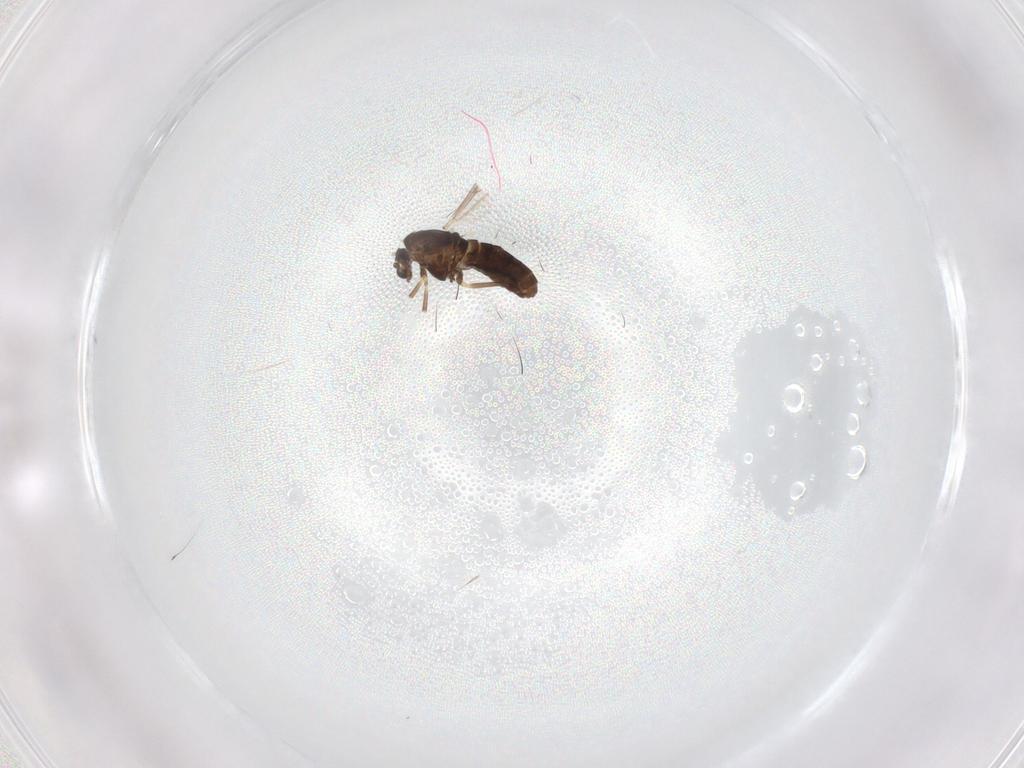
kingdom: Animalia
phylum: Arthropoda
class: Insecta
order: Diptera
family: Chironomidae
